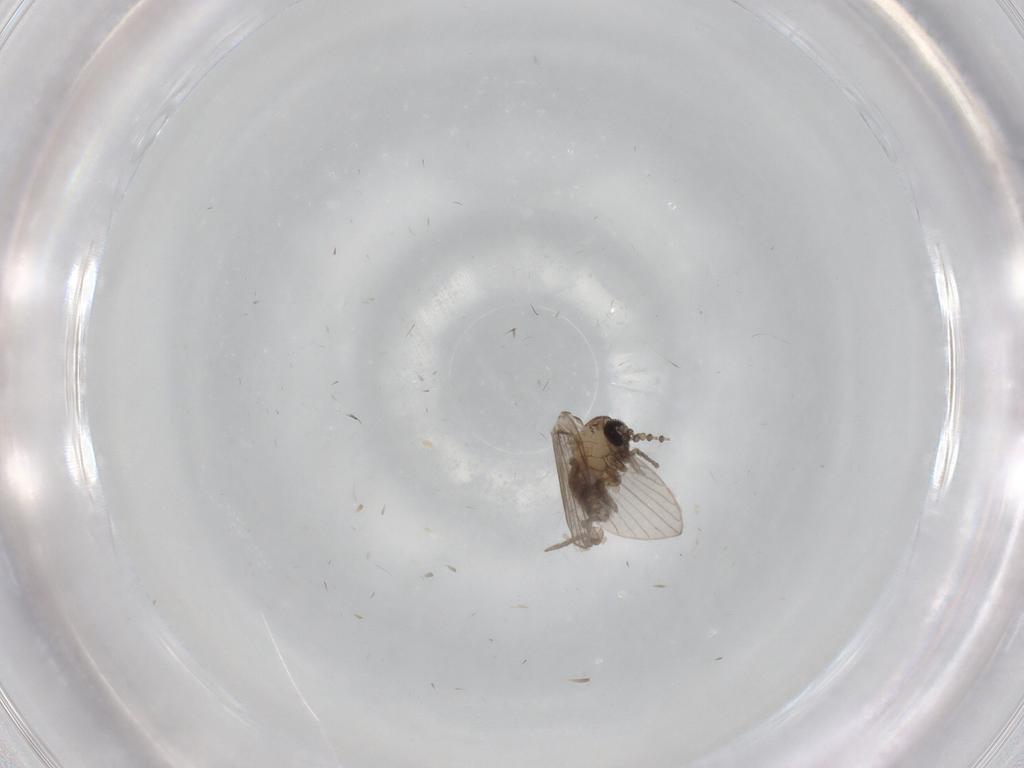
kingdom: Animalia
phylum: Arthropoda
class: Insecta
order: Diptera
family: Psychodidae
